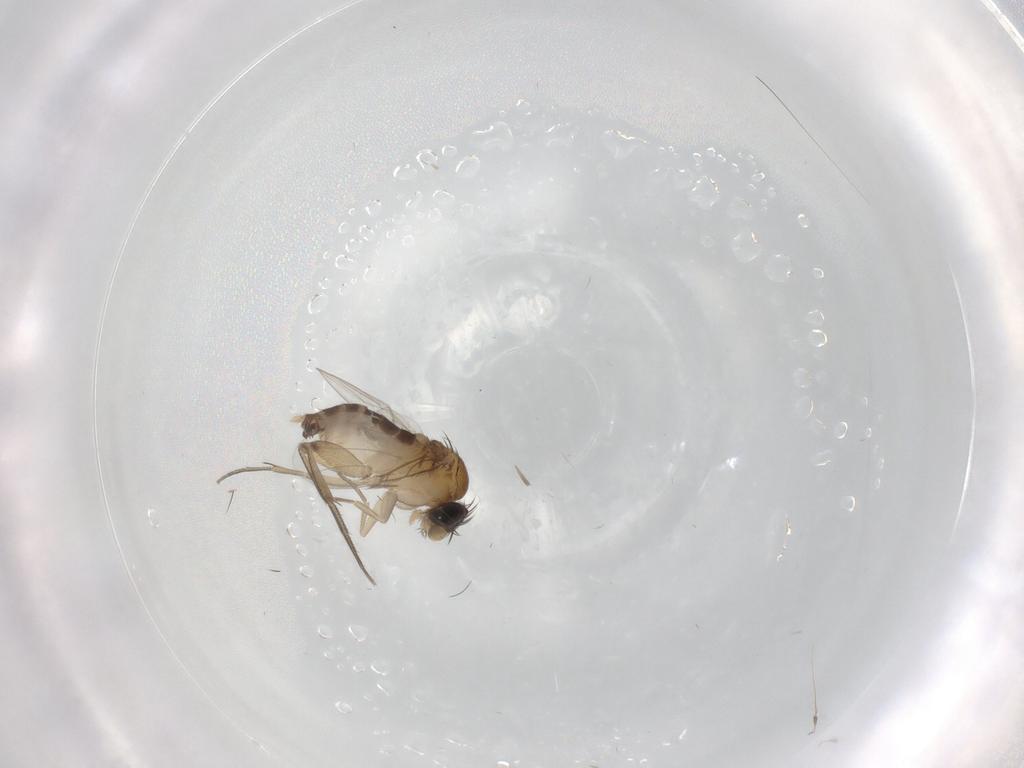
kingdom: Animalia
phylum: Arthropoda
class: Insecta
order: Diptera
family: Phoridae
